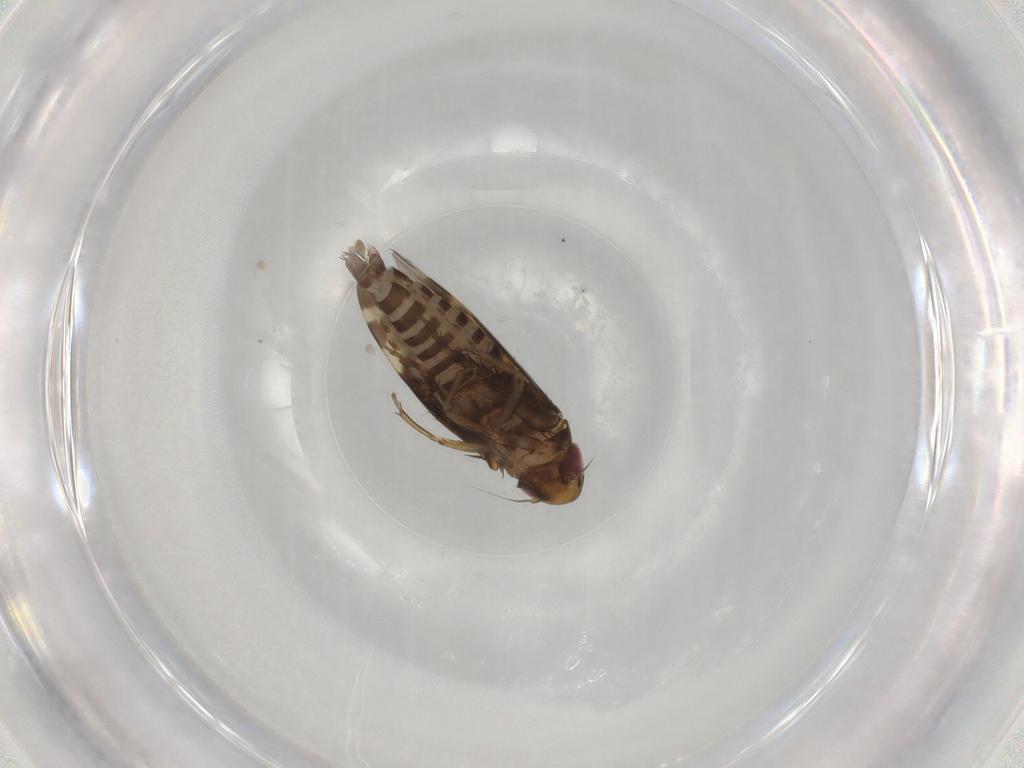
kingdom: Animalia
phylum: Arthropoda
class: Insecta
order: Hemiptera
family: Cicadellidae
